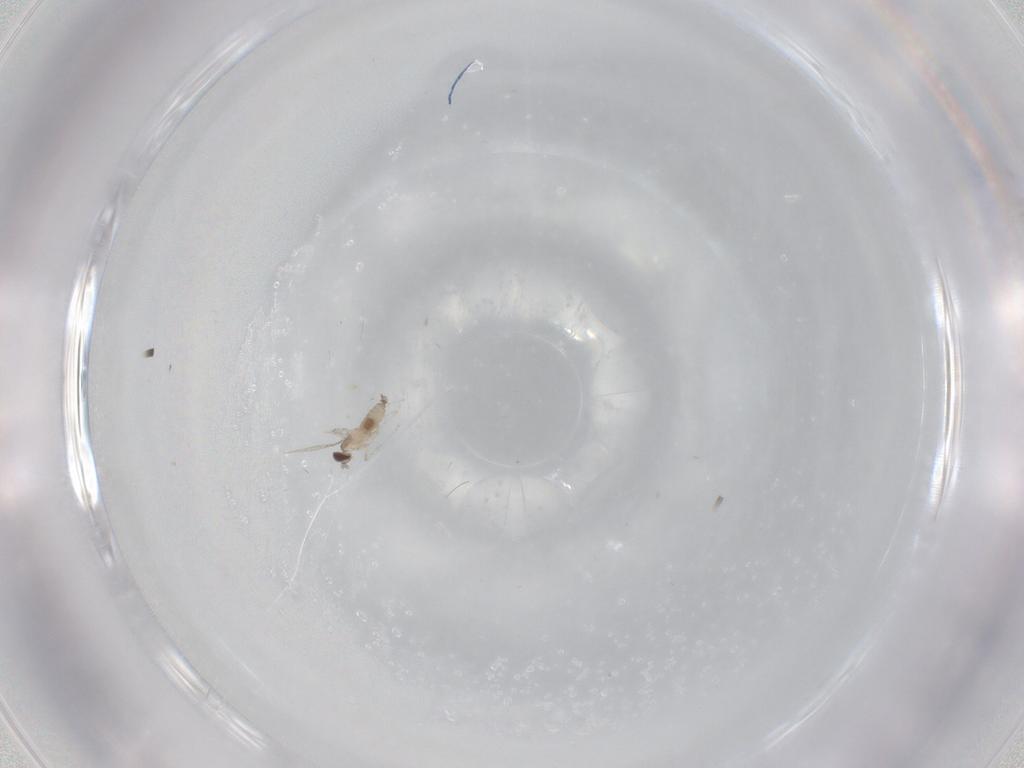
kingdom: Animalia
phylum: Arthropoda
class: Insecta
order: Diptera
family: Cecidomyiidae
